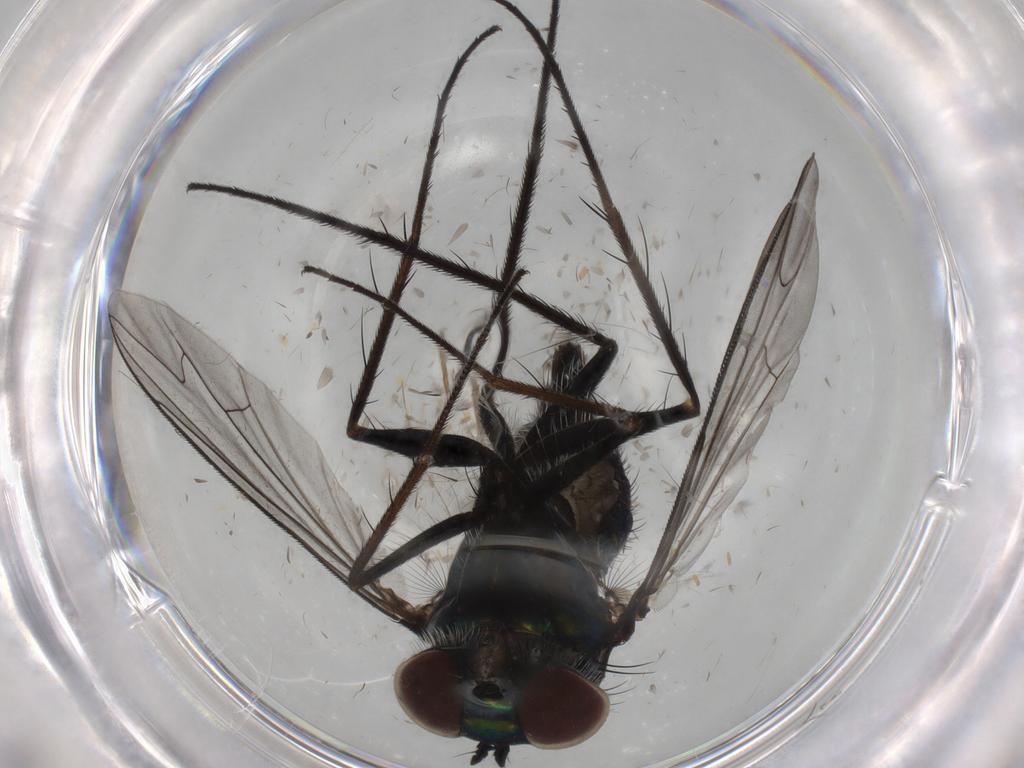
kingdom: Animalia
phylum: Arthropoda
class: Insecta
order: Diptera
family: Dolichopodidae
